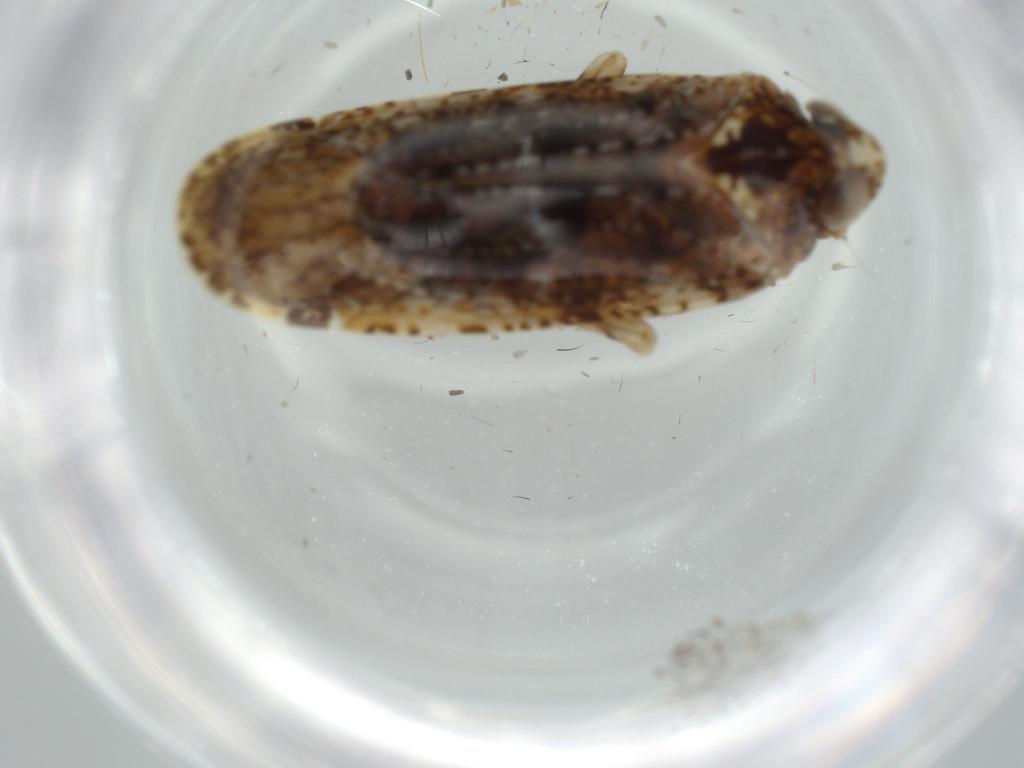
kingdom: Animalia
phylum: Arthropoda
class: Insecta
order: Hemiptera
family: Achilidae
